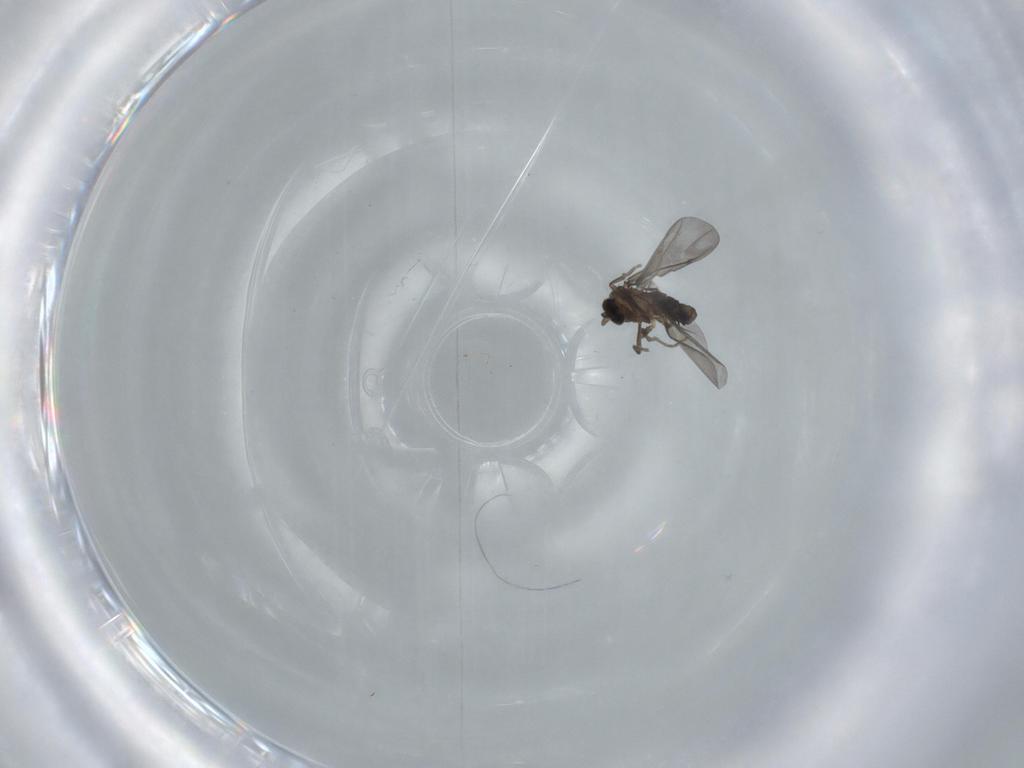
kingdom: Animalia
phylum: Arthropoda
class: Insecta
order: Diptera
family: Phoridae
